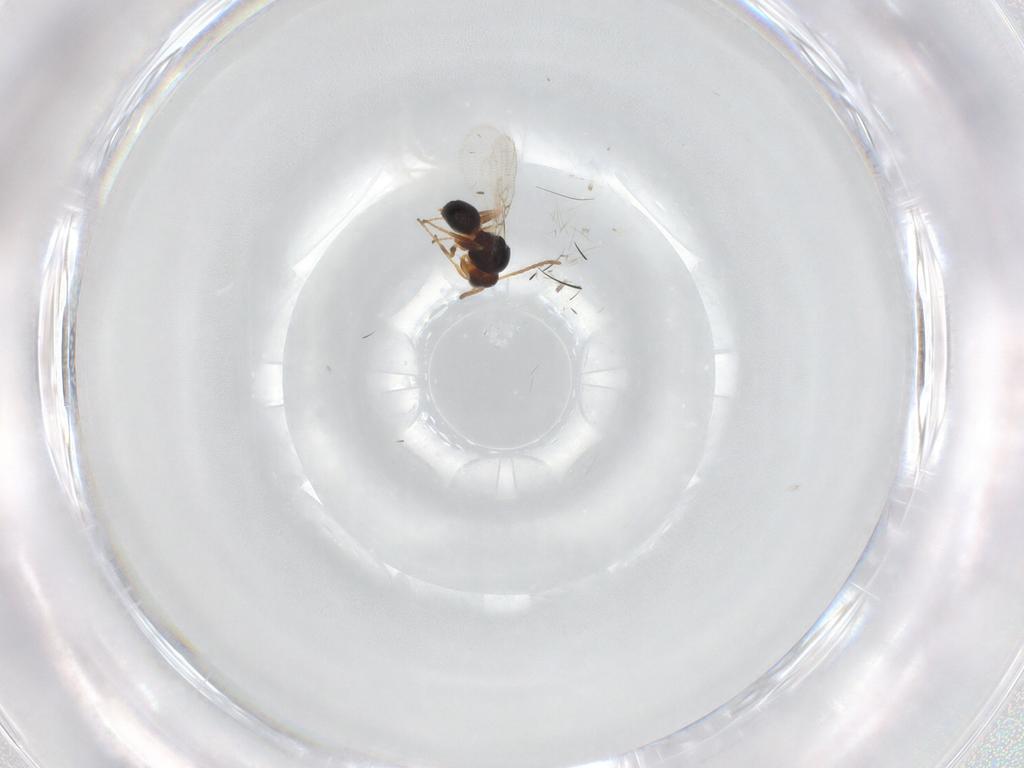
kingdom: Animalia
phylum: Arthropoda
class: Insecta
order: Hymenoptera
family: Figitidae
